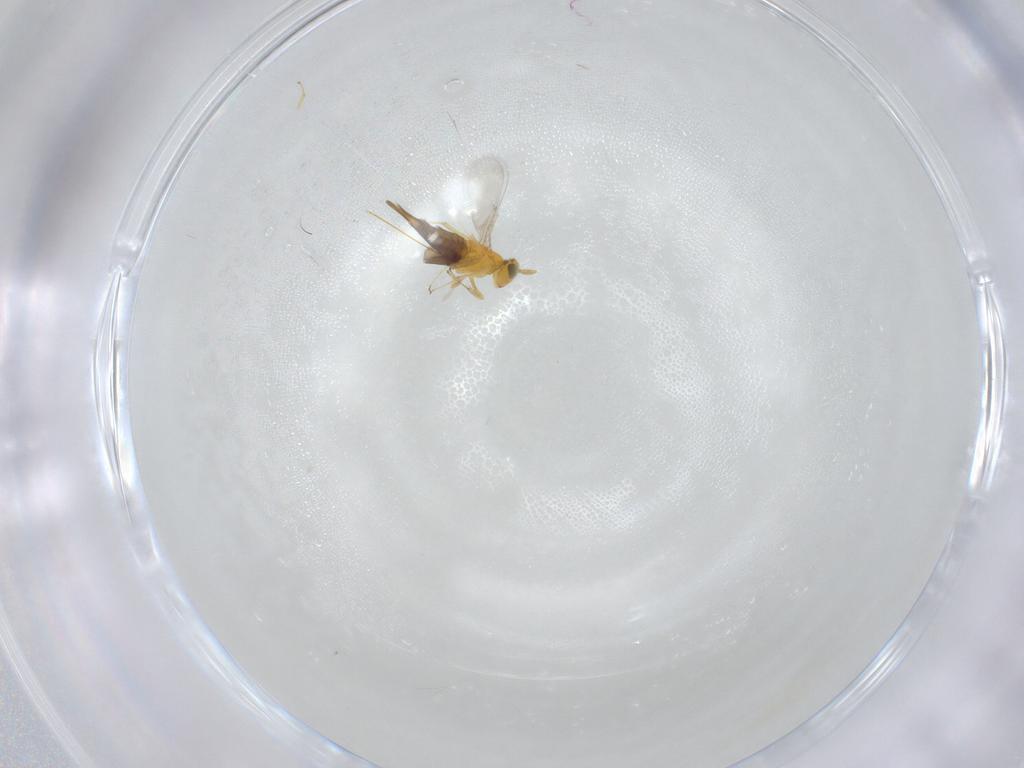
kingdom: Animalia
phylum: Arthropoda
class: Insecta
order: Hymenoptera
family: Aphelinidae
